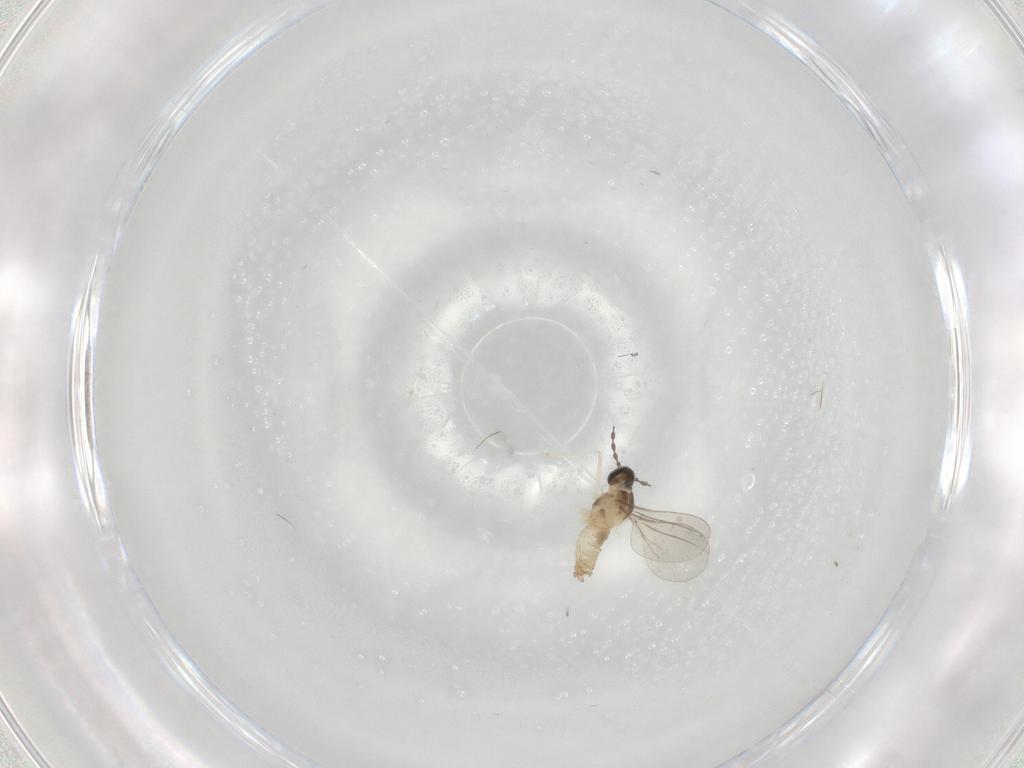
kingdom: Animalia
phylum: Arthropoda
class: Insecta
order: Diptera
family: Cecidomyiidae
